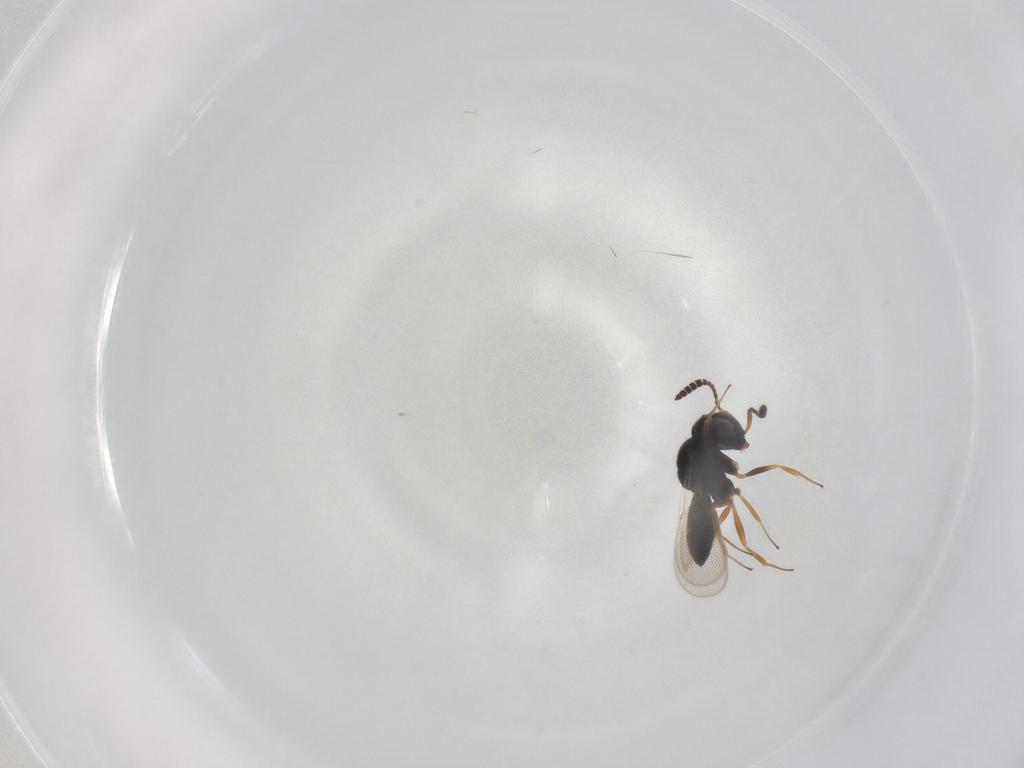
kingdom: Animalia
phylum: Arthropoda
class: Insecta
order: Hymenoptera
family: Scelionidae
